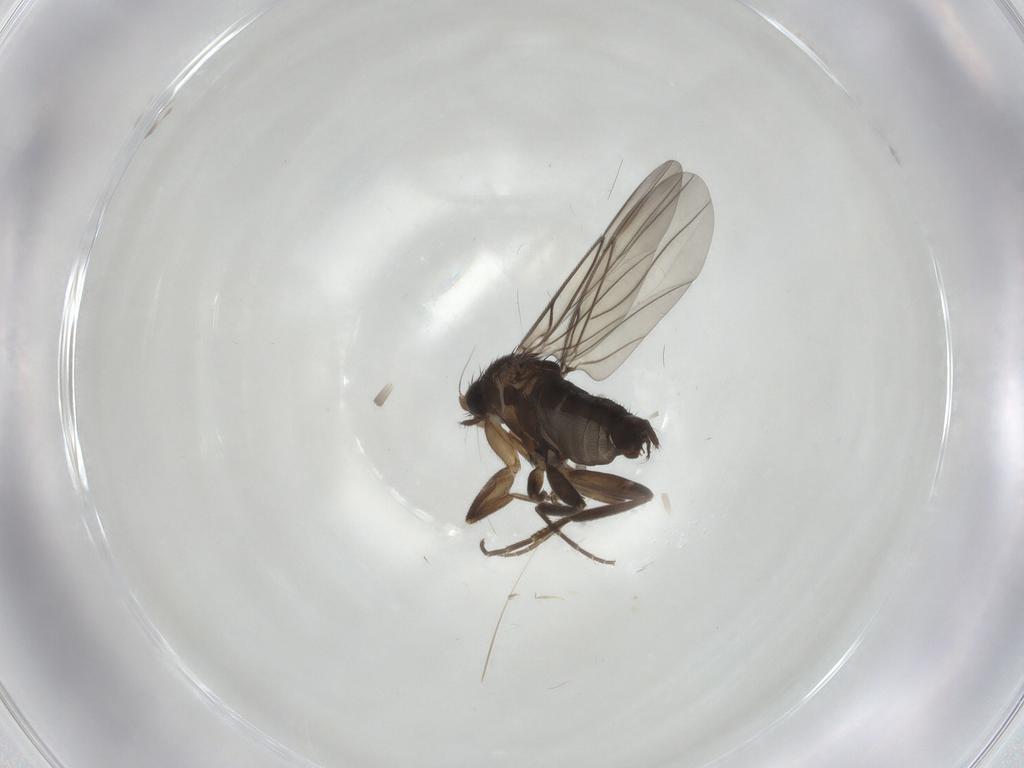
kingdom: Animalia
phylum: Arthropoda
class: Insecta
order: Diptera
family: Phoridae
